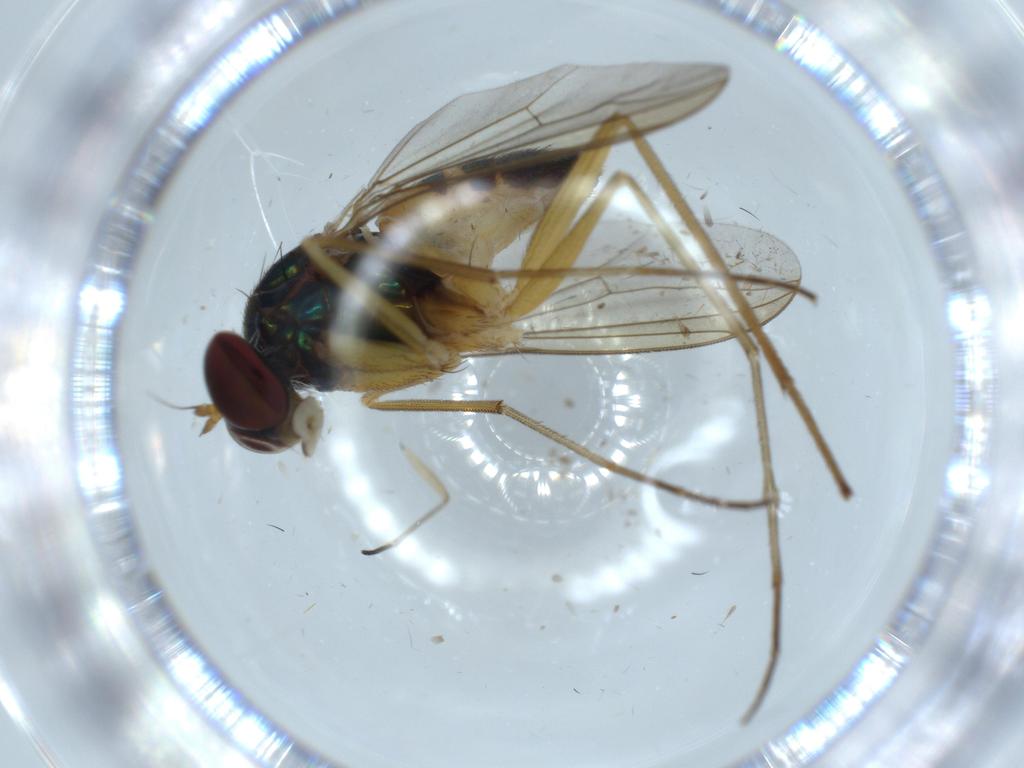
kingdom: Animalia
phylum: Arthropoda
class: Insecta
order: Diptera
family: Dolichopodidae
